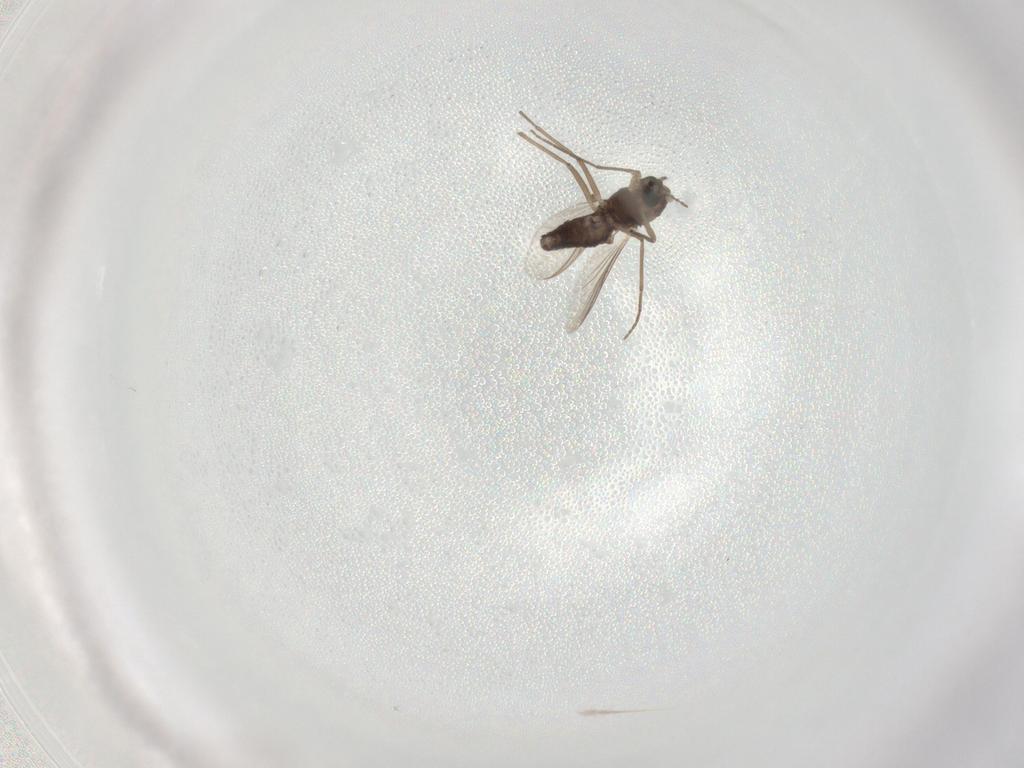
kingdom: Animalia
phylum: Arthropoda
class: Insecta
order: Diptera
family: Chironomidae
